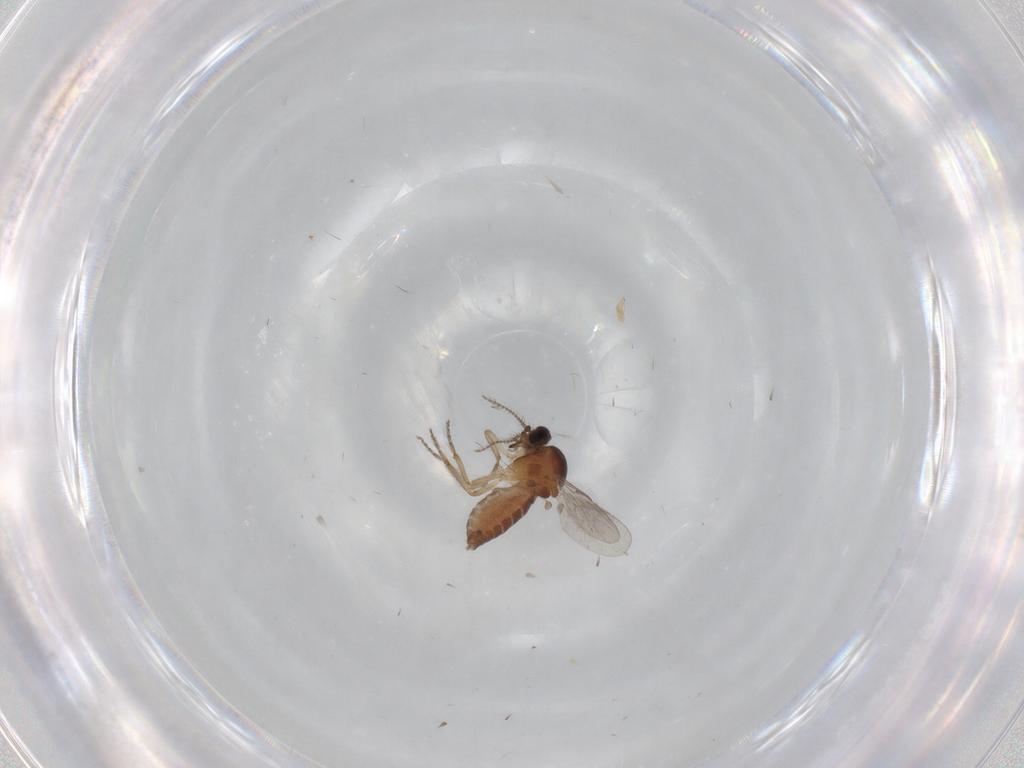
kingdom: Animalia
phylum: Arthropoda
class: Insecta
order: Diptera
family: Ceratopogonidae
